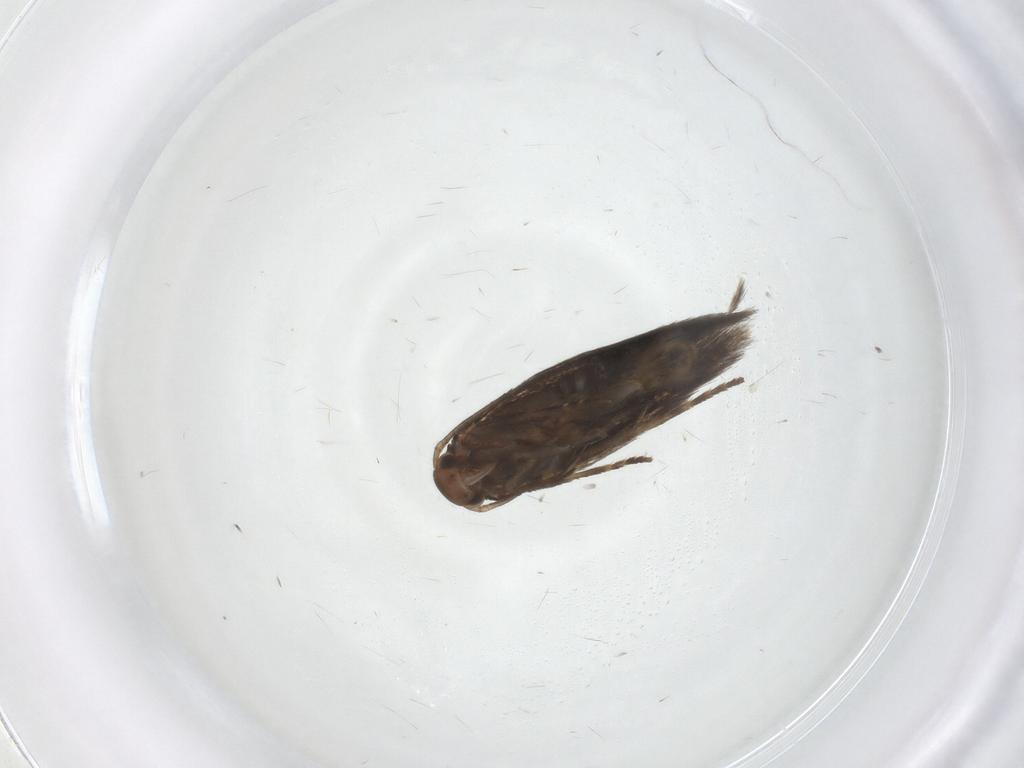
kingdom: Animalia
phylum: Arthropoda
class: Insecta
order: Lepidoptera
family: Elachistidae
